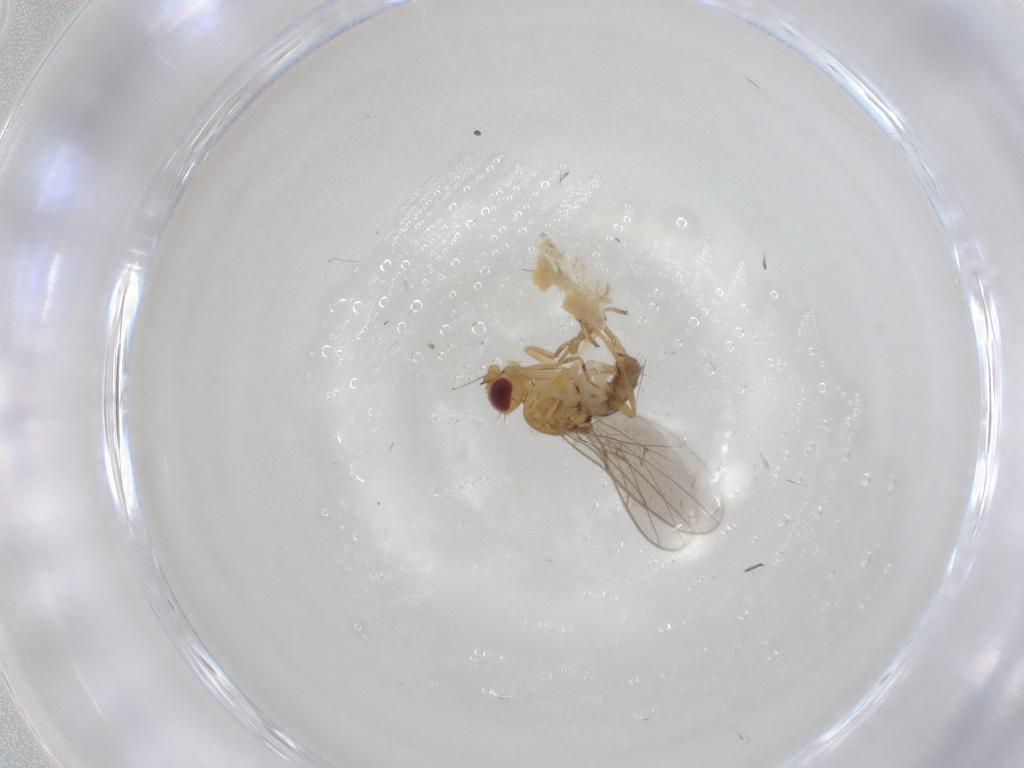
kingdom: Animalia
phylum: Arthropoda
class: Insecta
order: Diptera
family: Chloropidae
